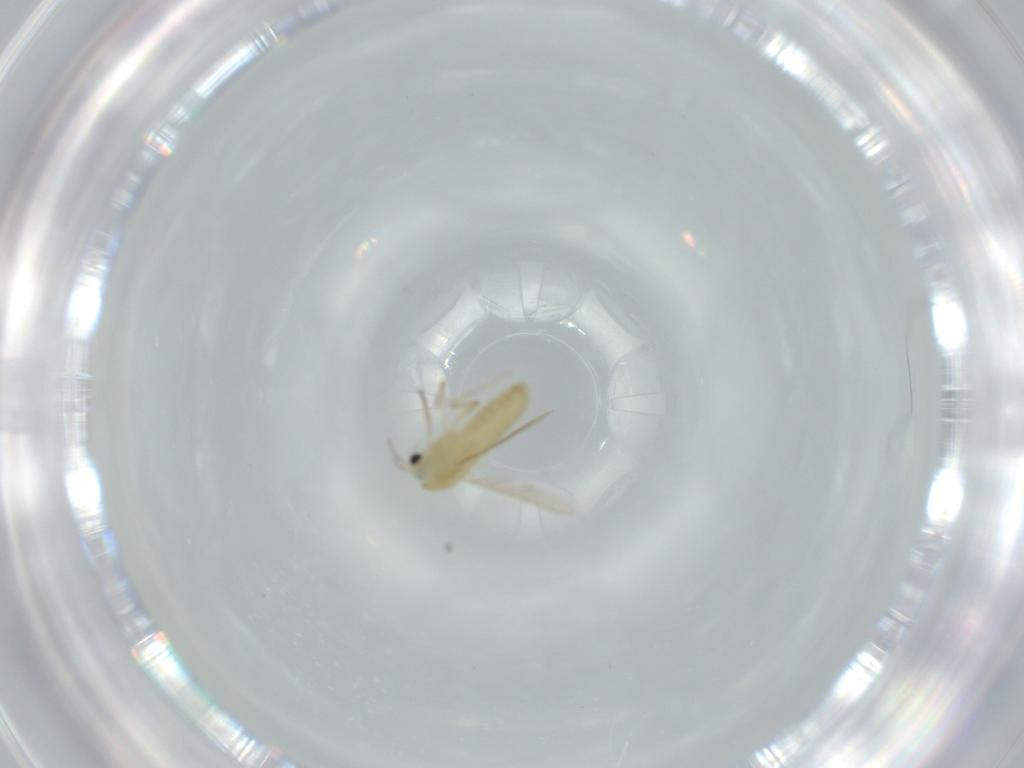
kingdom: Animalia
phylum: Arthropoda
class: Insecta
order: Diptera
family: Chironomidae
